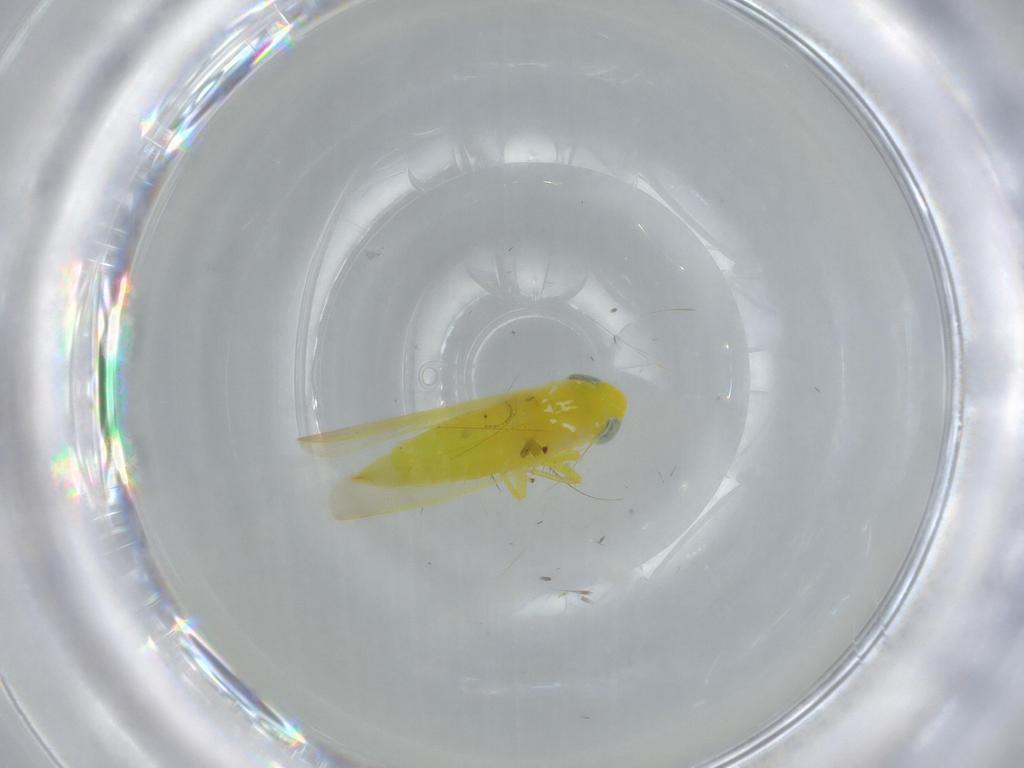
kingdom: Animalia
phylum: Arthropoda
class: Insecta
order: Hemiptera
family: Cicadellidae
